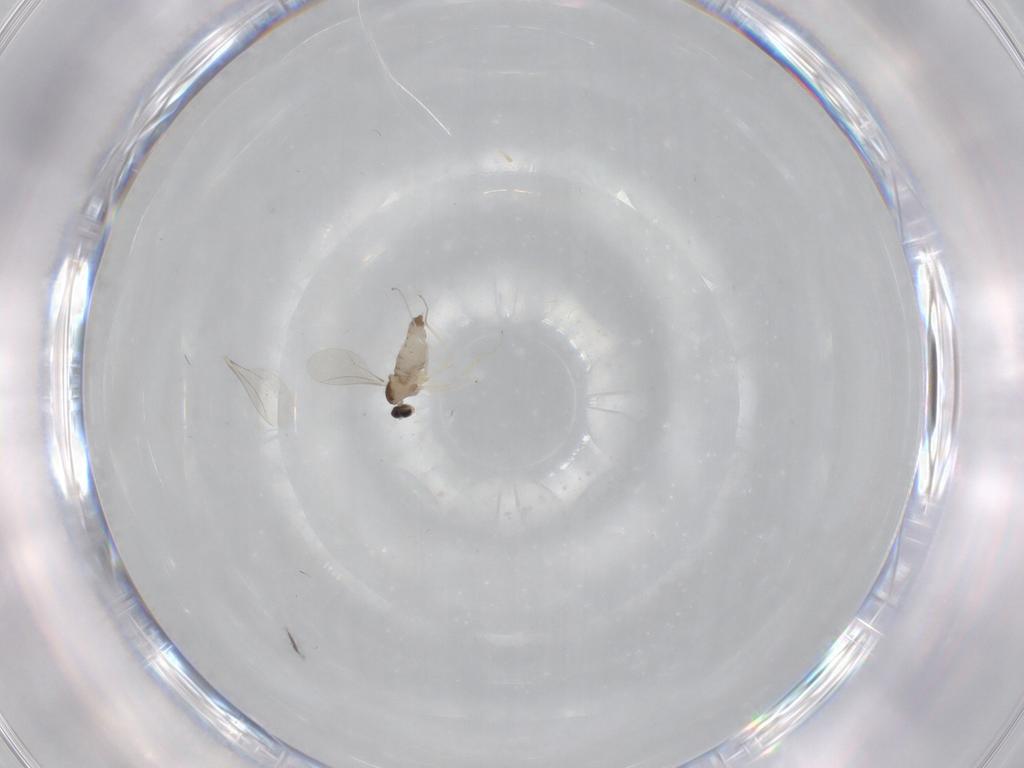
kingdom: Animalia
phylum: Arthropoda
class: Insecta
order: Diptera
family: Cecidomyiidae
